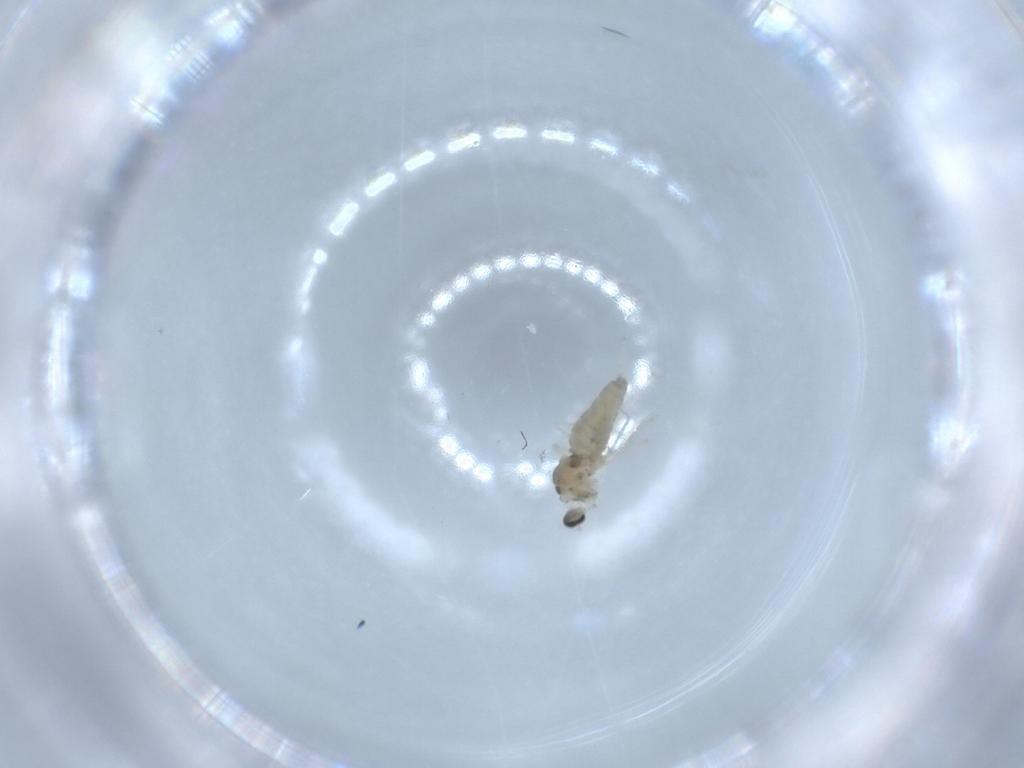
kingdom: Animalia
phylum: Arthropoda
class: Insecta
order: Diptera
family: Cecidomyiidae
